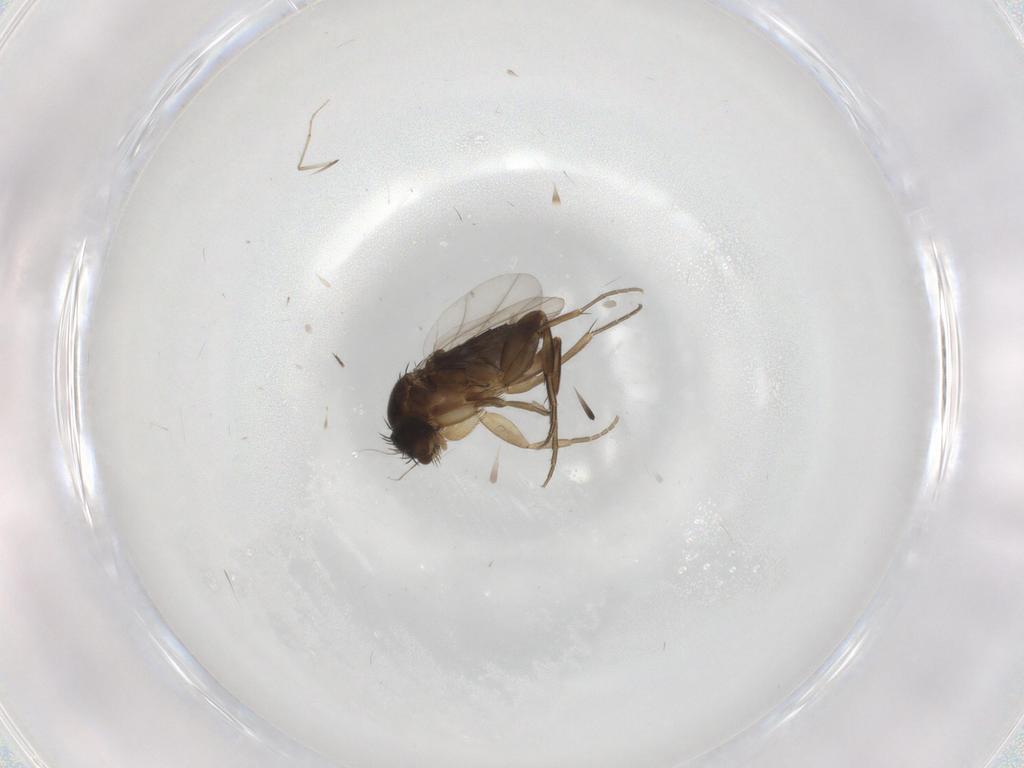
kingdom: Animalia
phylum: Arthropoda
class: Insecta
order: Diptera
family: Phoridae
